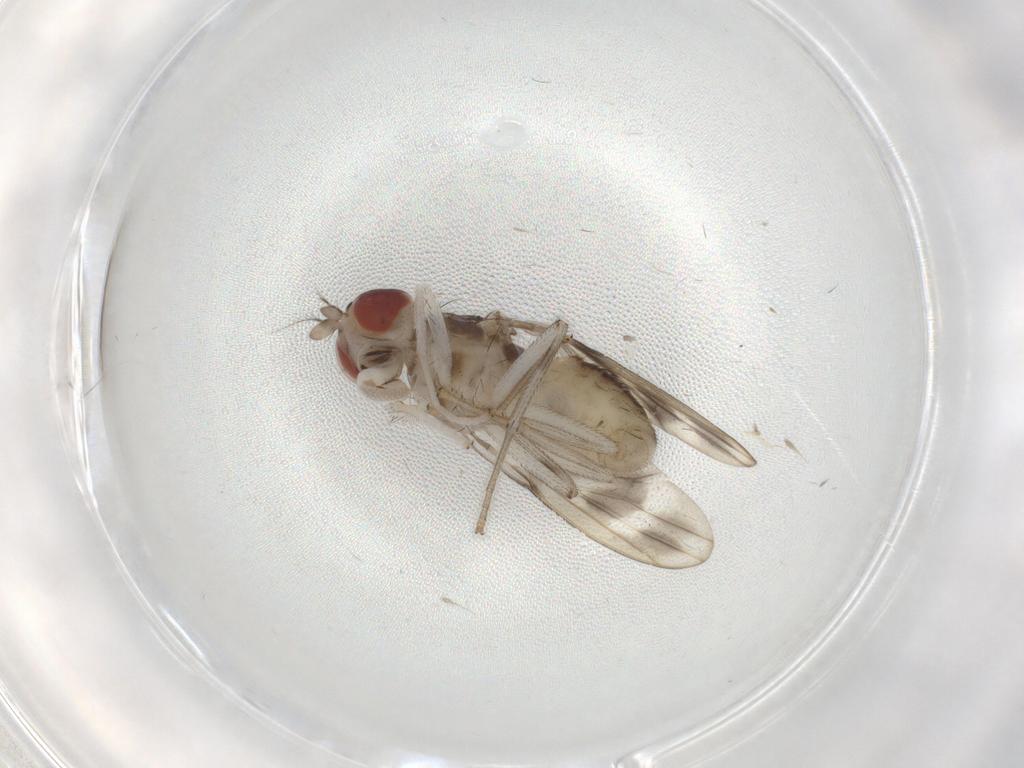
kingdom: Animalia
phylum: Arthropoda
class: Insecta
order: Diptera
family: Lauxaniidae
